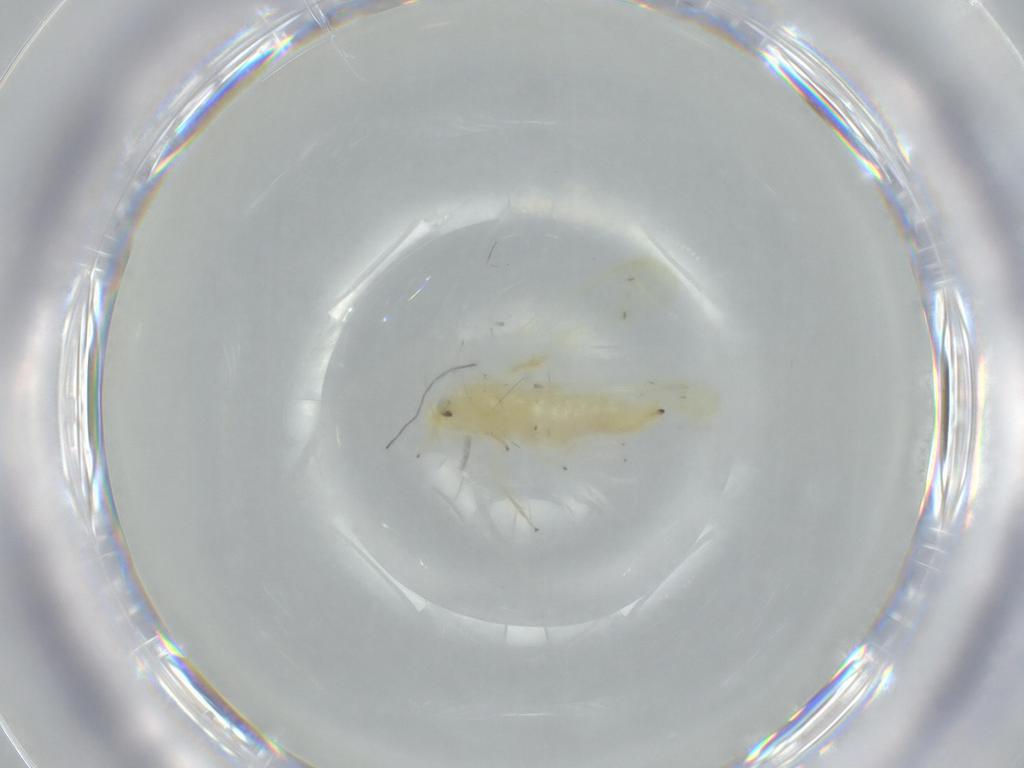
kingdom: Animalia
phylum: Arthropoda
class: Insecta
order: Hemiptera
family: Cicadellidae
